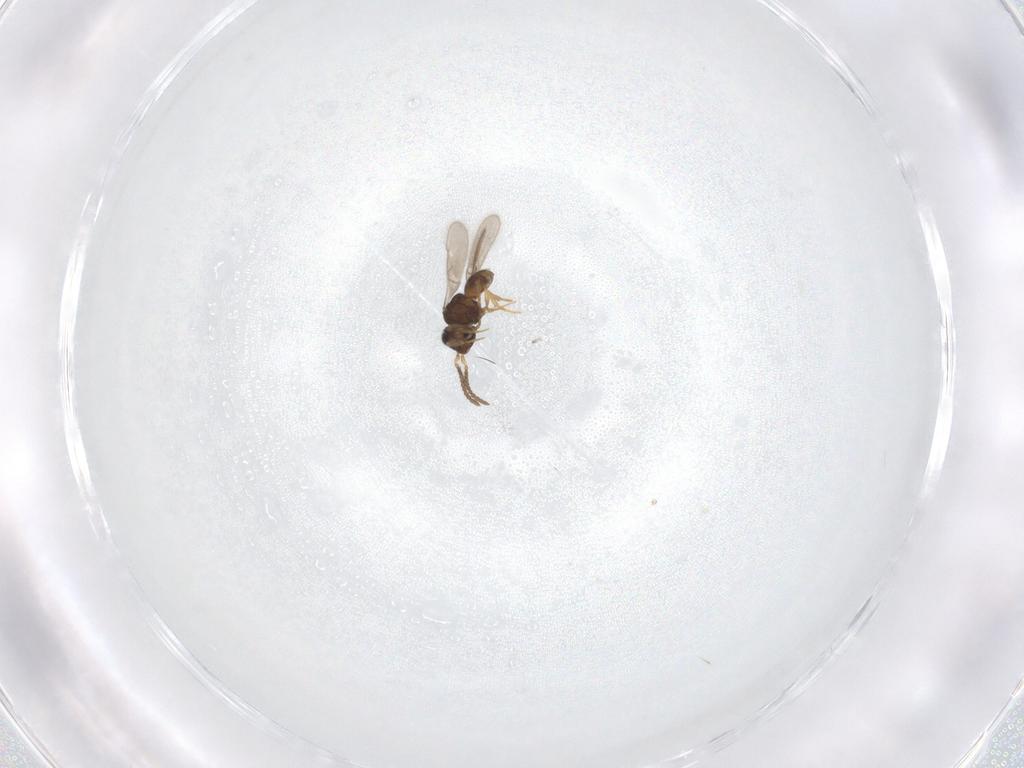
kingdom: Animalia
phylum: Arthropoda
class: Insecta
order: Hymenoptera
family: Scelionidae
